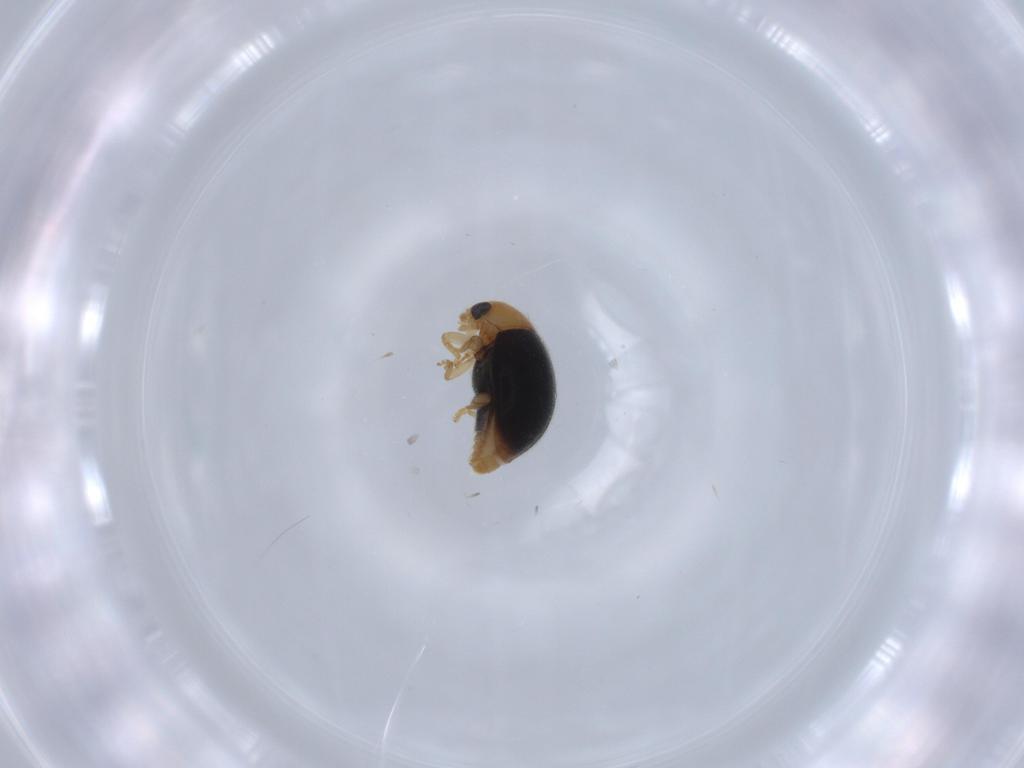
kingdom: Animalia
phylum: Arthropoda
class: Insecta
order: Coleoptera
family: Coccinellidae
